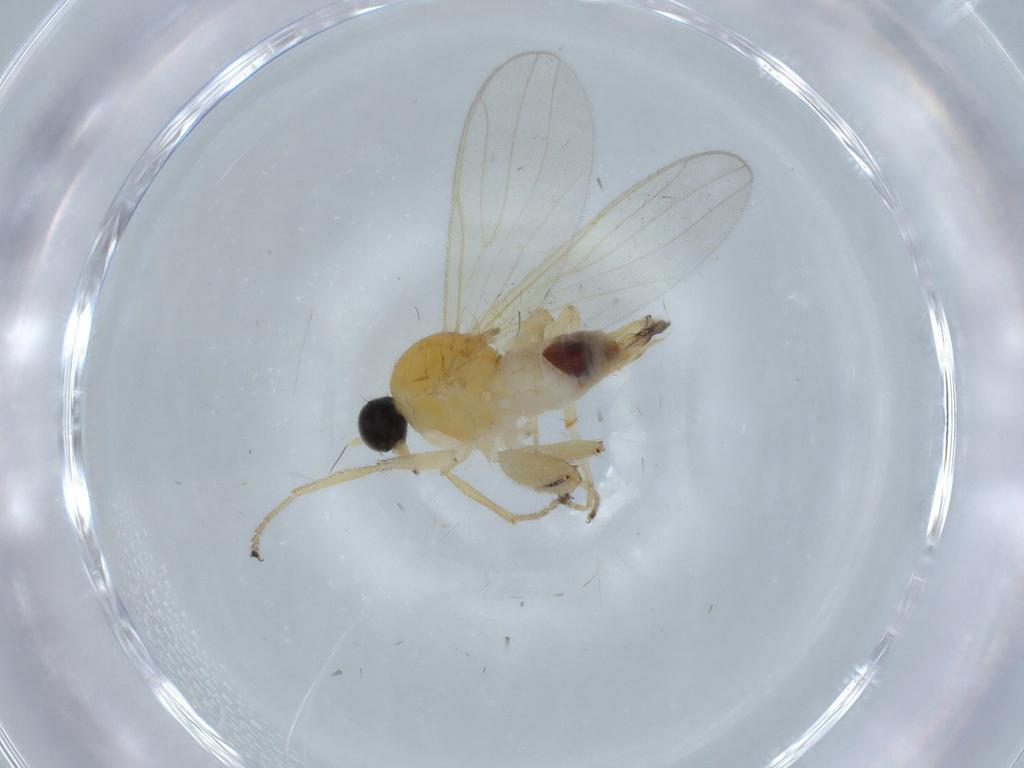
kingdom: Animalia
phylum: Arthropoda
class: Insecta
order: Diptera
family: Hybotidae
